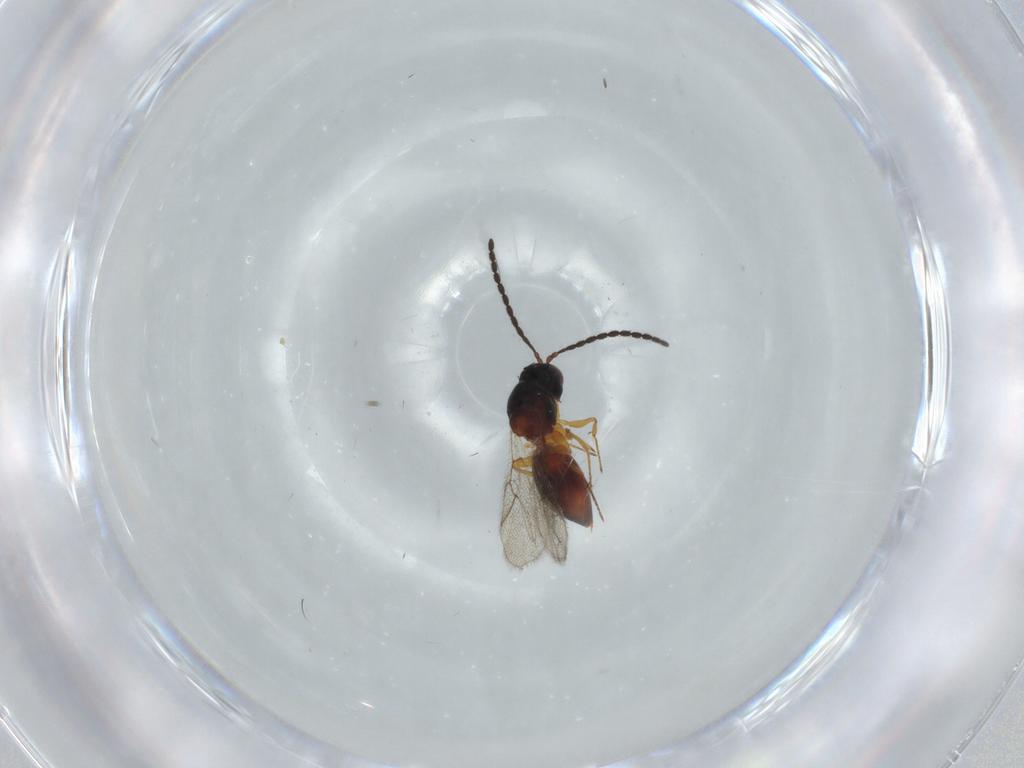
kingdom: Animalia
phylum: Arthropoda
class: Insecta
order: Hymenoptera
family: Figitidae
